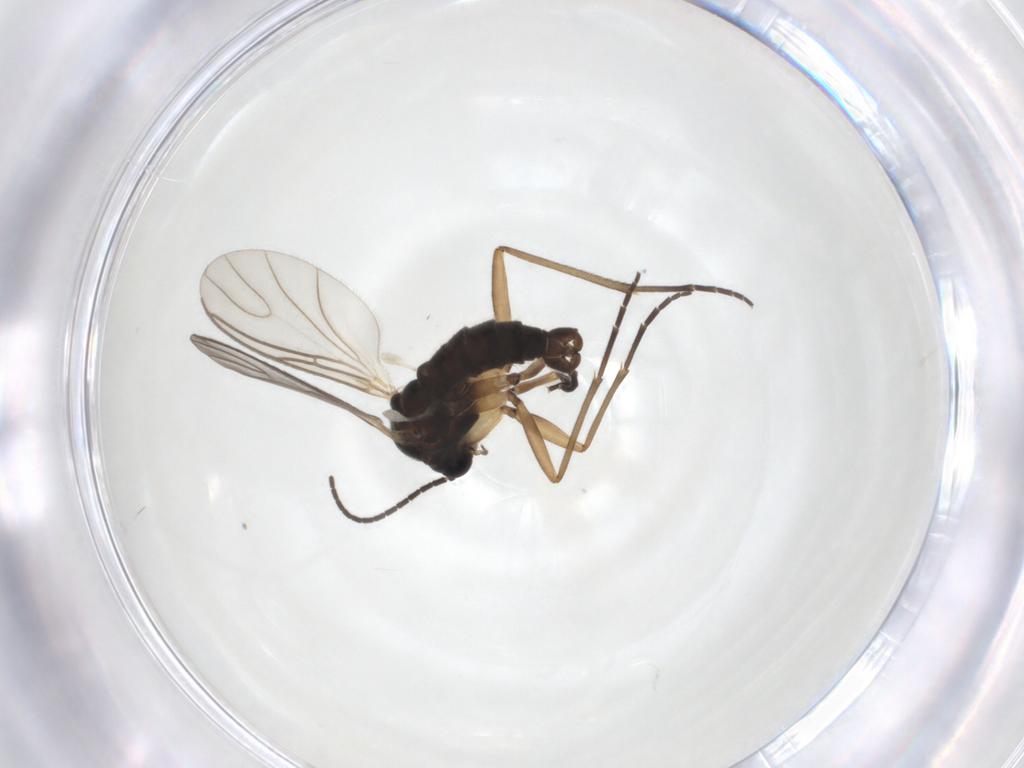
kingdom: Animalia
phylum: Arthropoda
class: Insecta
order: Diptera
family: Sciaridae
